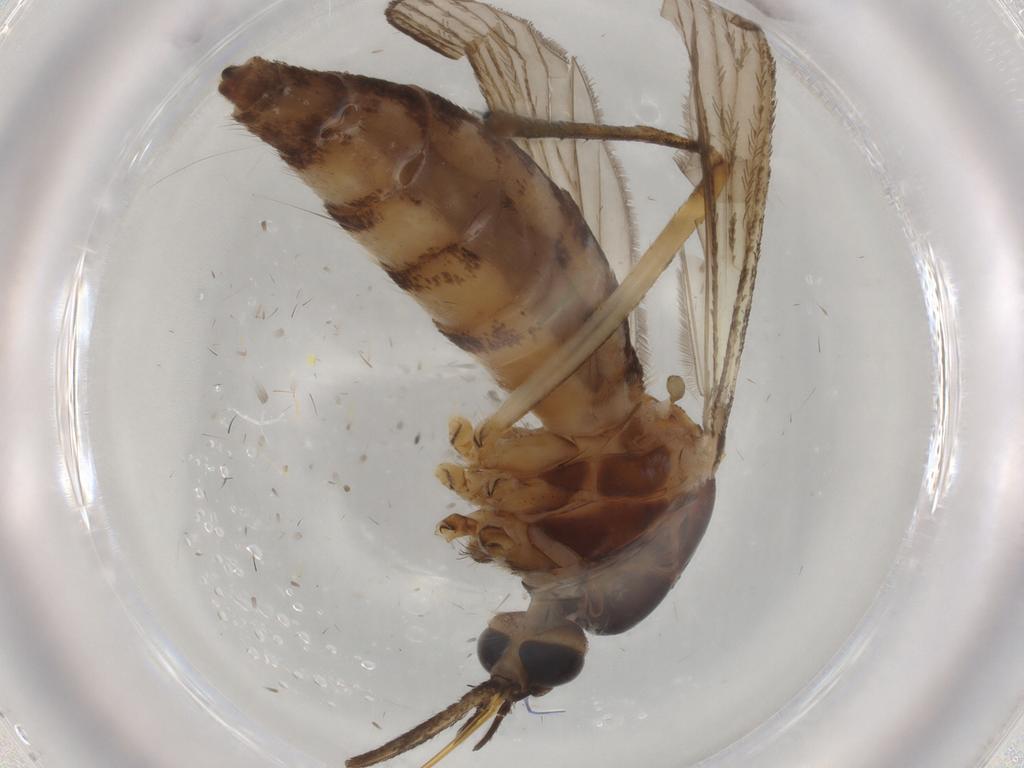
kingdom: Animalia
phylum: Arthropoda
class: Insecta
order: Diptera
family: Culicidae
